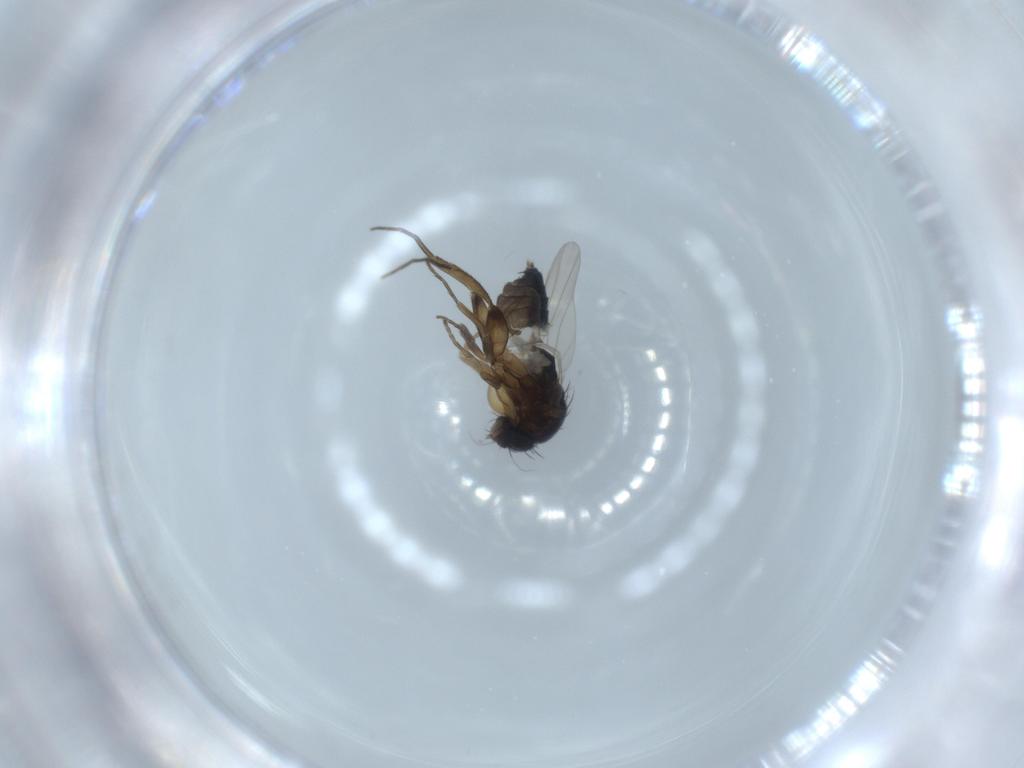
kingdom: Animalia
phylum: Arthropoda
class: Insecta
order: Diptera
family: Phoridae
